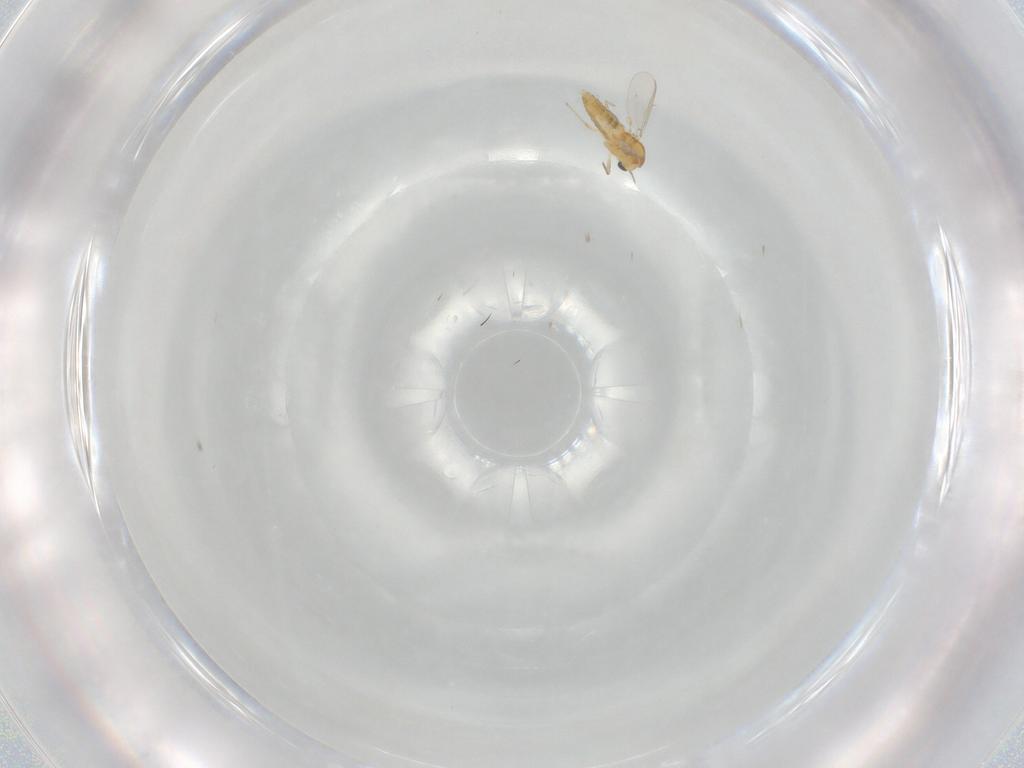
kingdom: Animalia
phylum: Arthropoda
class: Insecta
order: Diptera
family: Chironomidae
